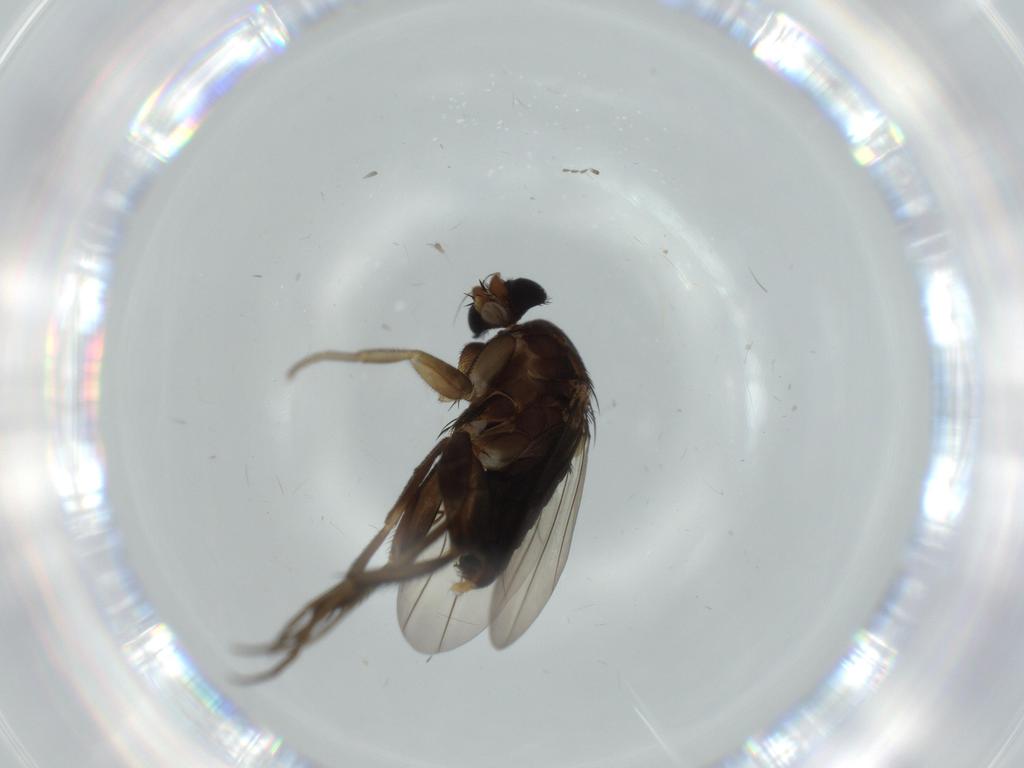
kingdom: Animalia
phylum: Arthropoda
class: Insecta
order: Diptera
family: Phoridae
